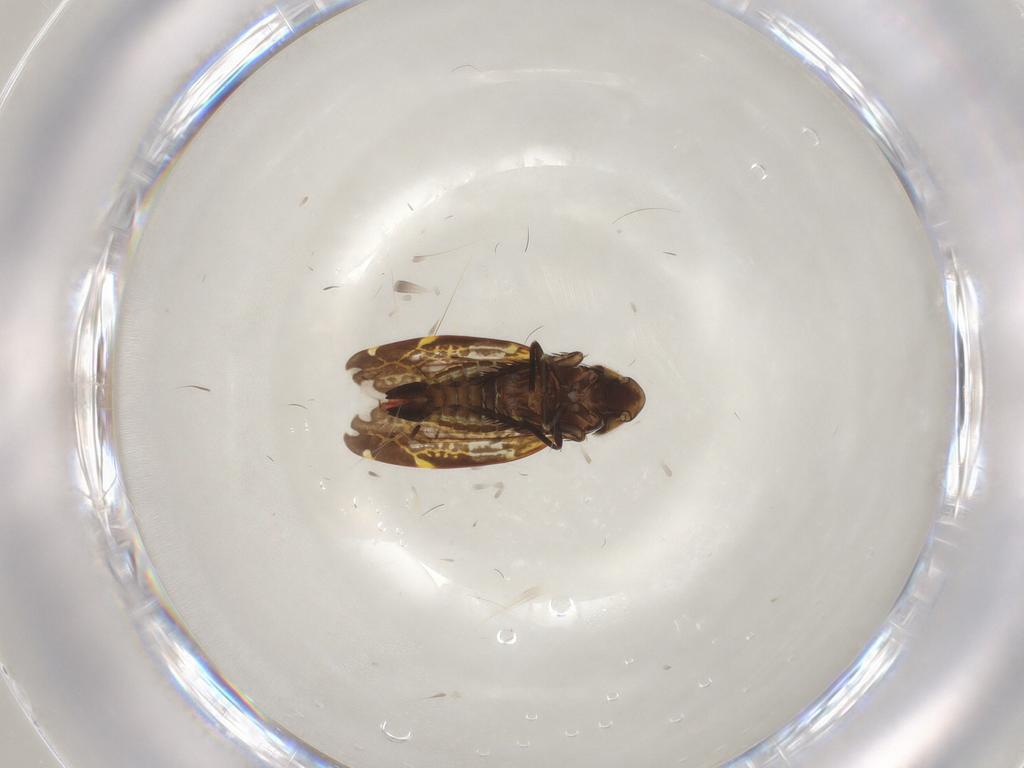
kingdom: Animalia
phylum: Arthropoda
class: Insecta
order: Hemiptera
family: Cicadellidae
